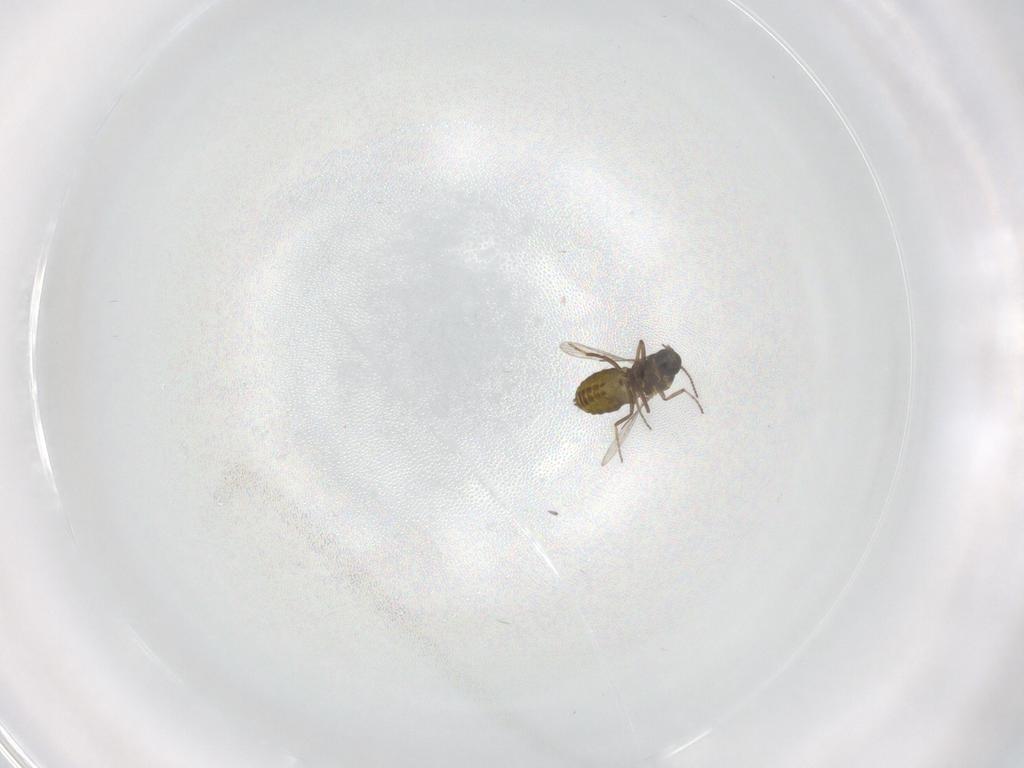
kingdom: Animalia
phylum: Arthropoda
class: Insecta
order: Diptera
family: Ceratopogonidae
